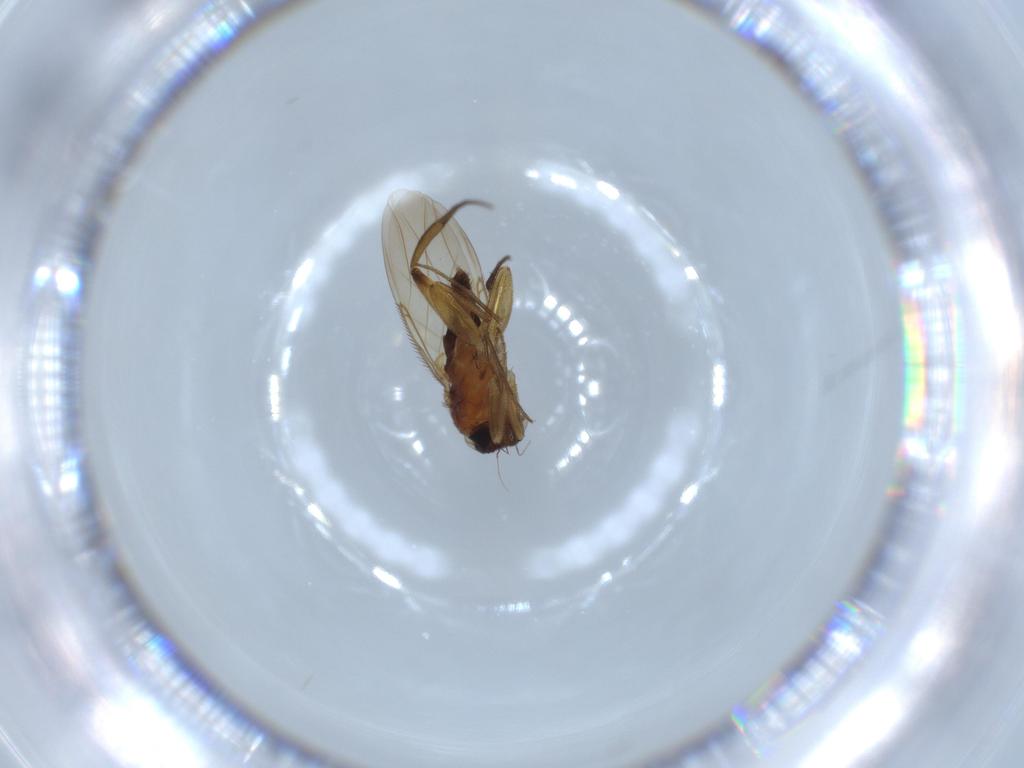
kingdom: Animalia
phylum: Arthropoda
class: Insecta
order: Diptera
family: Phoridae
